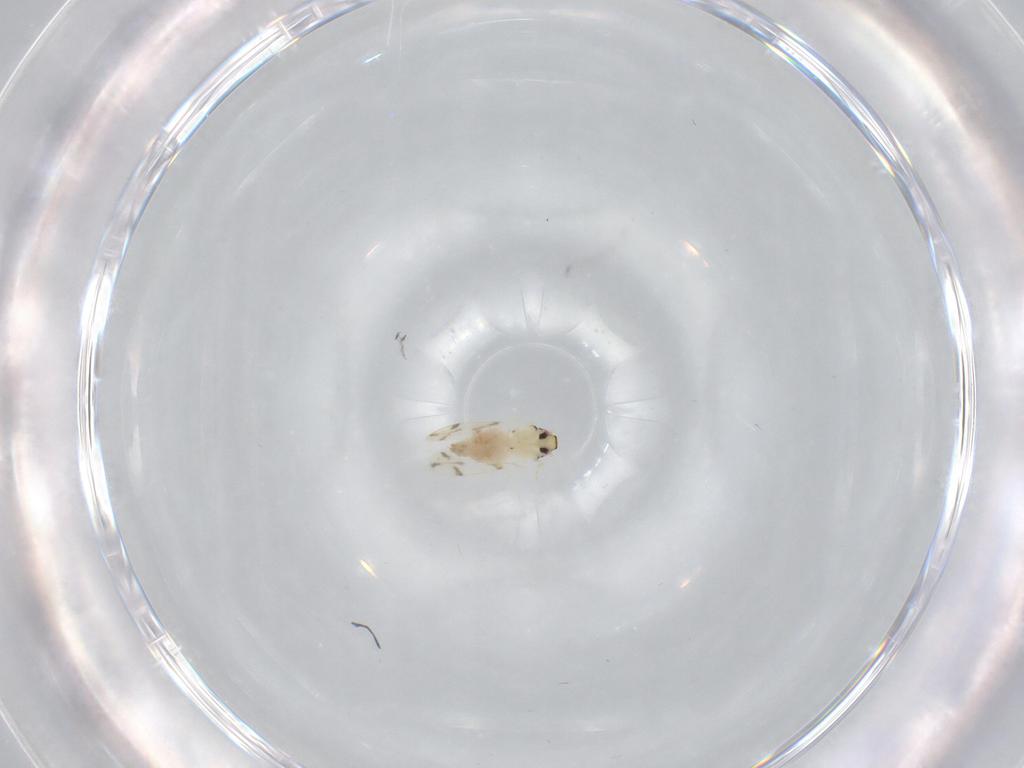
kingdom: Animalia
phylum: Arthropoda
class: Insecta
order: Hemiptera
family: Aleyrodidae
